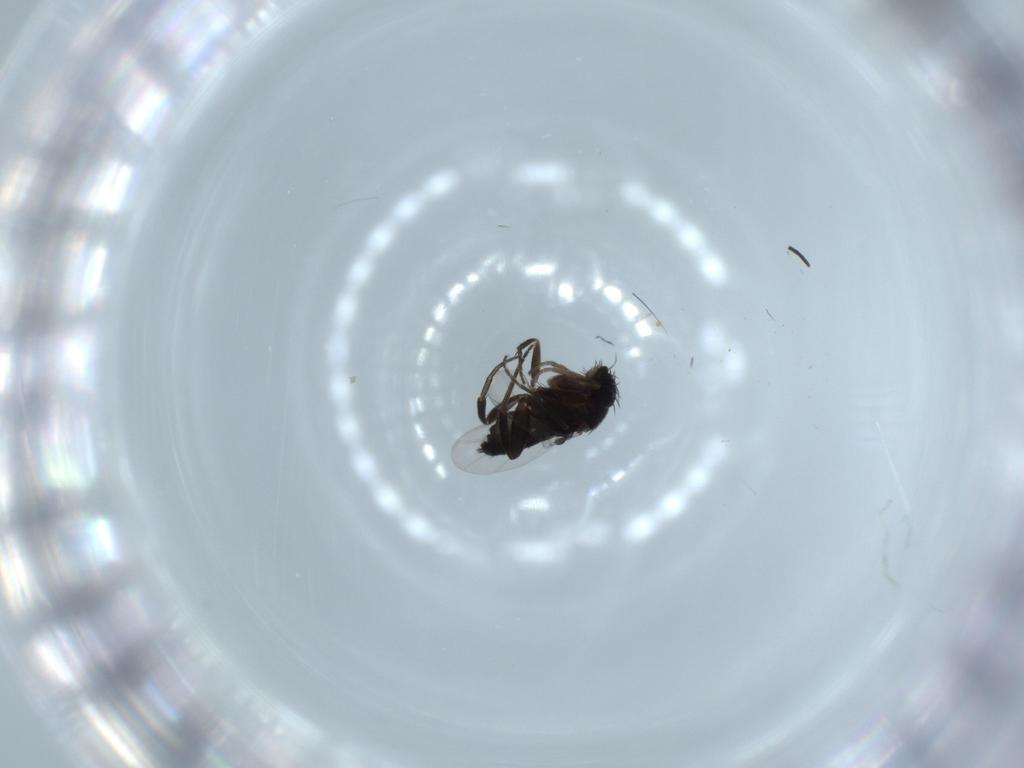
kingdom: Animalia
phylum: Arthropoda
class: Insecta
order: Diptera
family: Phoridae
